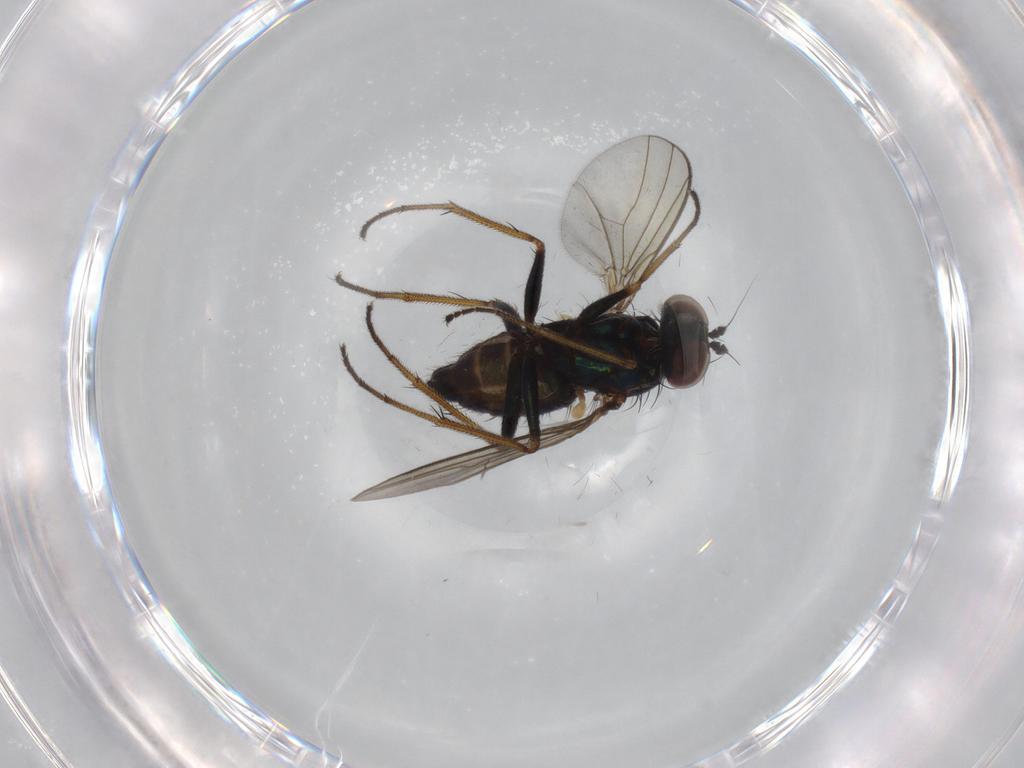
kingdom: Animalia
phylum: Arthropoda
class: Insecta
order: Diptera
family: Dolichopodidae
